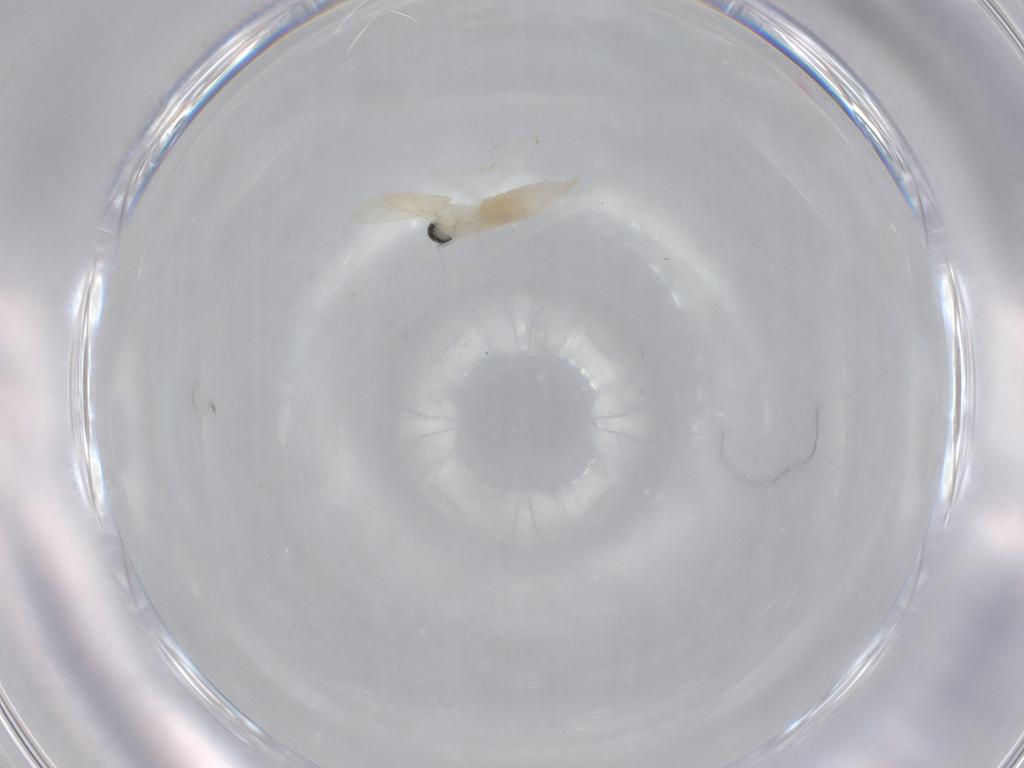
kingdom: Animalia
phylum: Arthropoda
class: Insecta
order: Diptera
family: Cecidomyiidae
